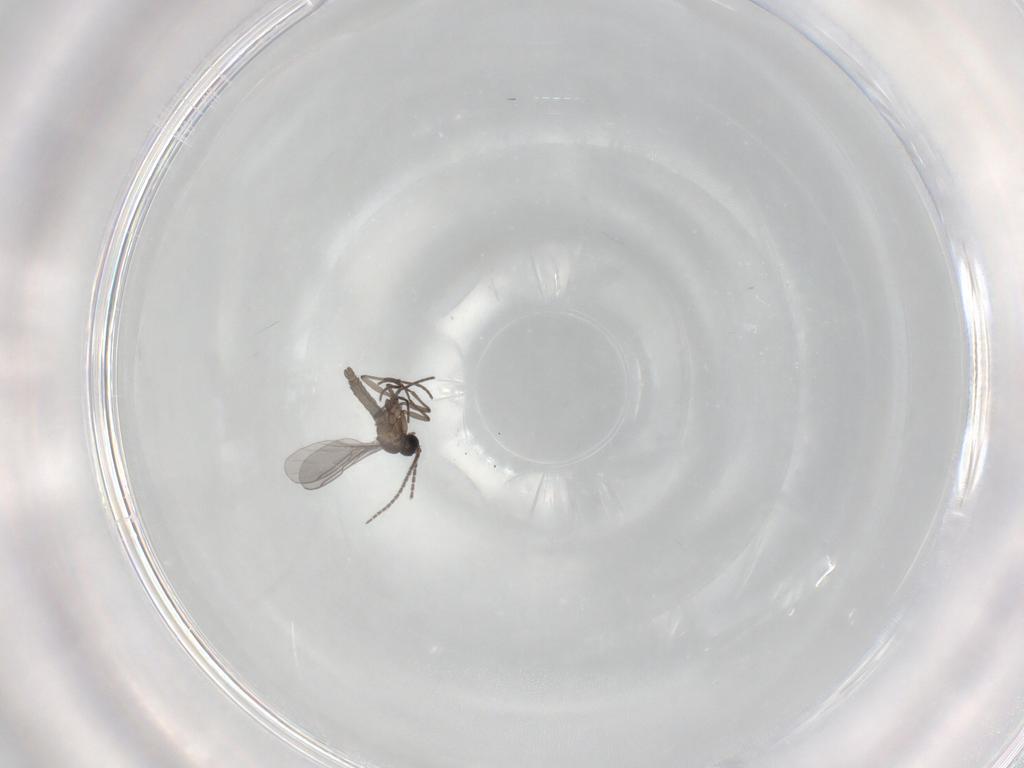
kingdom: Animalia
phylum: Arthropoda
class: Insecta
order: Diptera
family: Sciaridae
